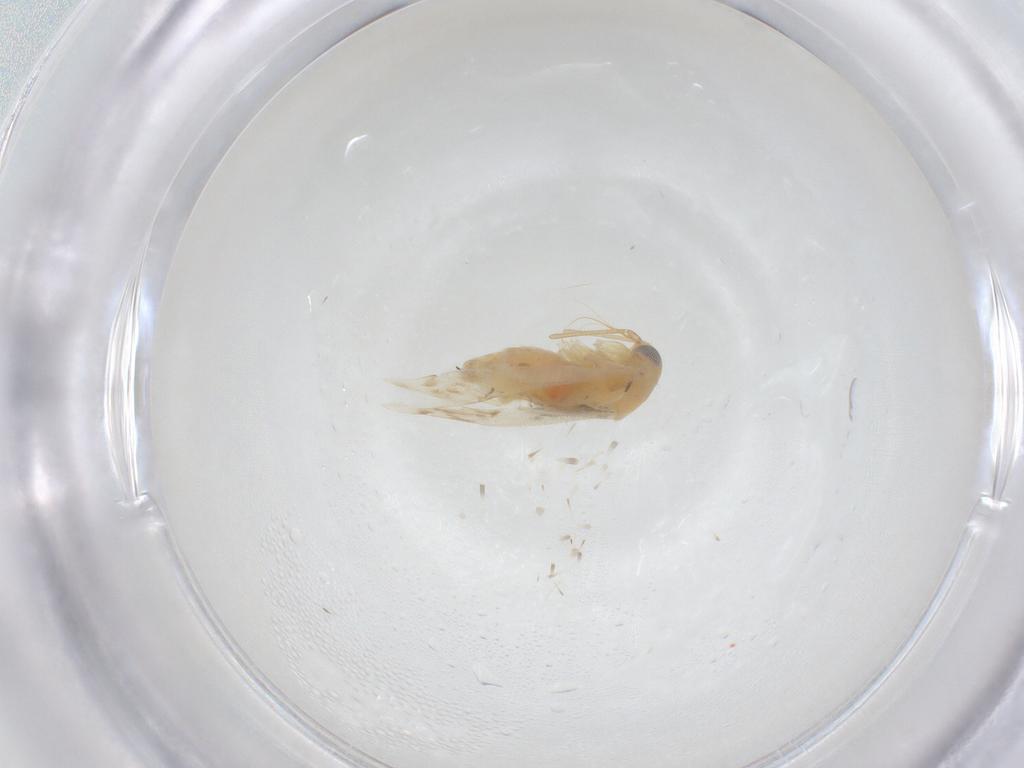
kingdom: Animalia
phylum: Arthropoda
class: Insecta
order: Lepidoptera
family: Noctuidae
